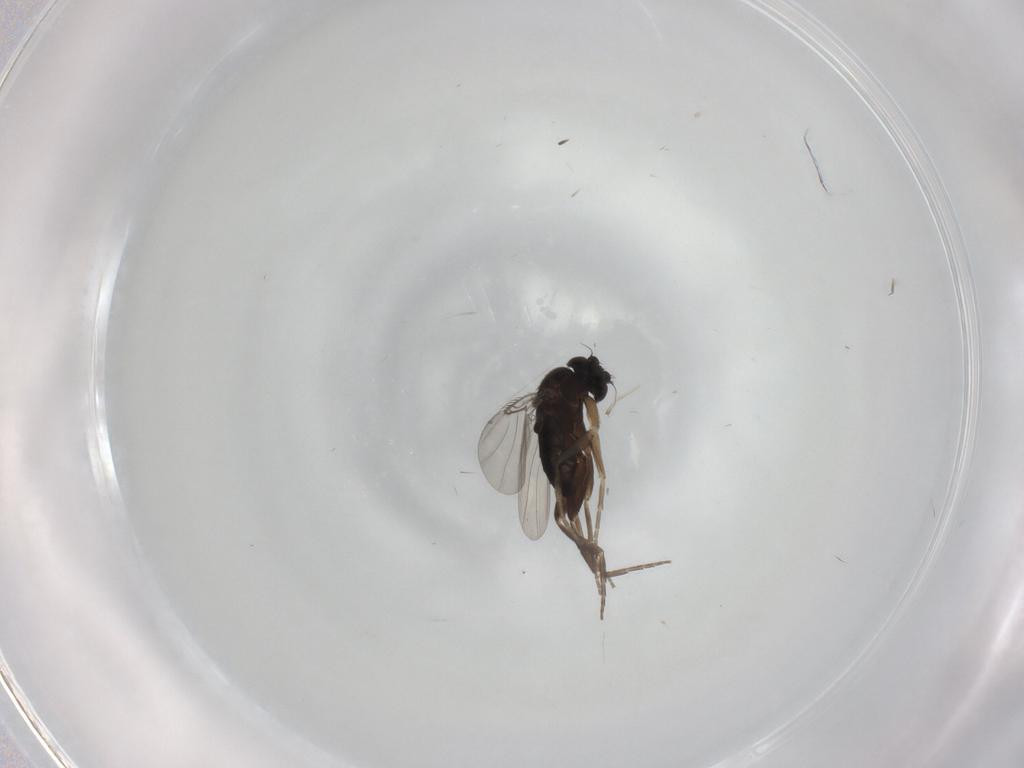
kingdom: Animalia
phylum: Arthropoda
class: Insecta
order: Diptera
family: Cecidomyiidae
